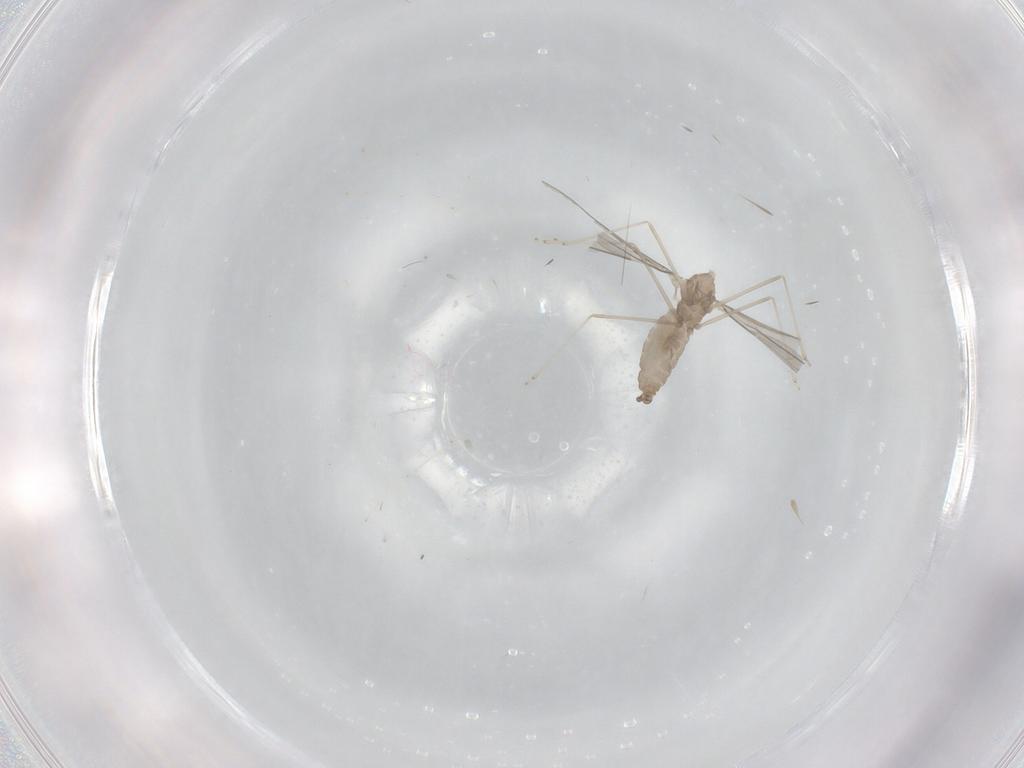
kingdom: Animalia
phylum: Arthropoda
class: Insecta
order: Diptera
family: Cecidomyiidae
